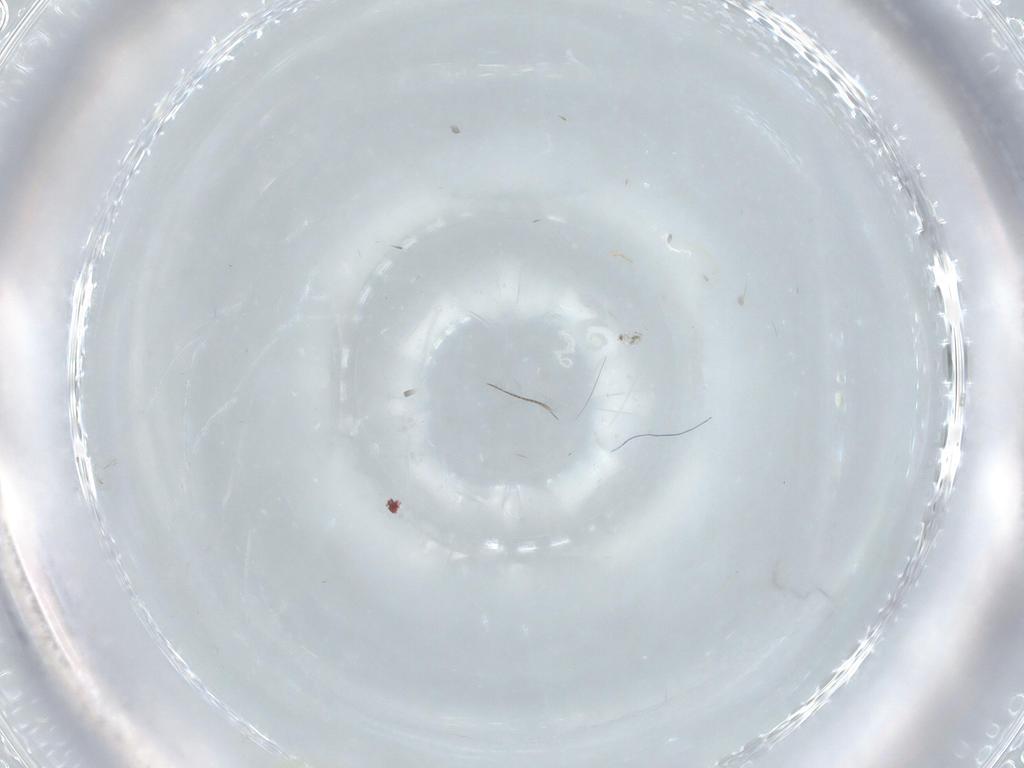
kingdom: Animalia
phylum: Arthropoda
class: Insecta
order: Hemiptera
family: Aleyrodidae
